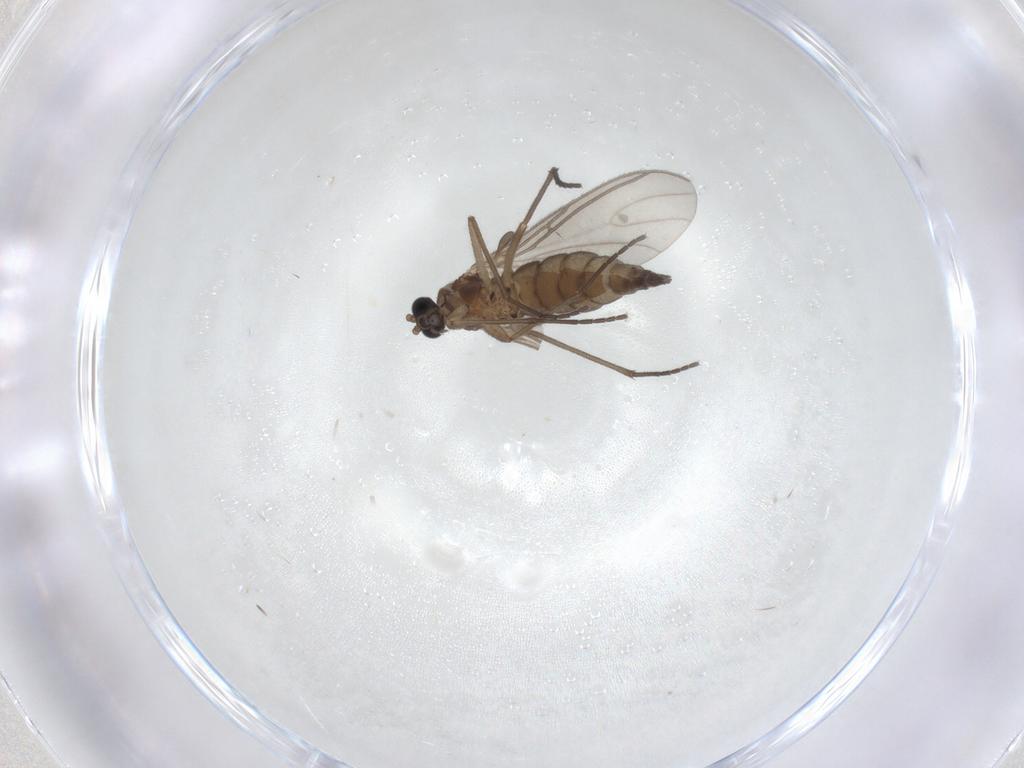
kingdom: Animalia
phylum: Arthropoda
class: Insecta
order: Diptera
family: Sciaridae
